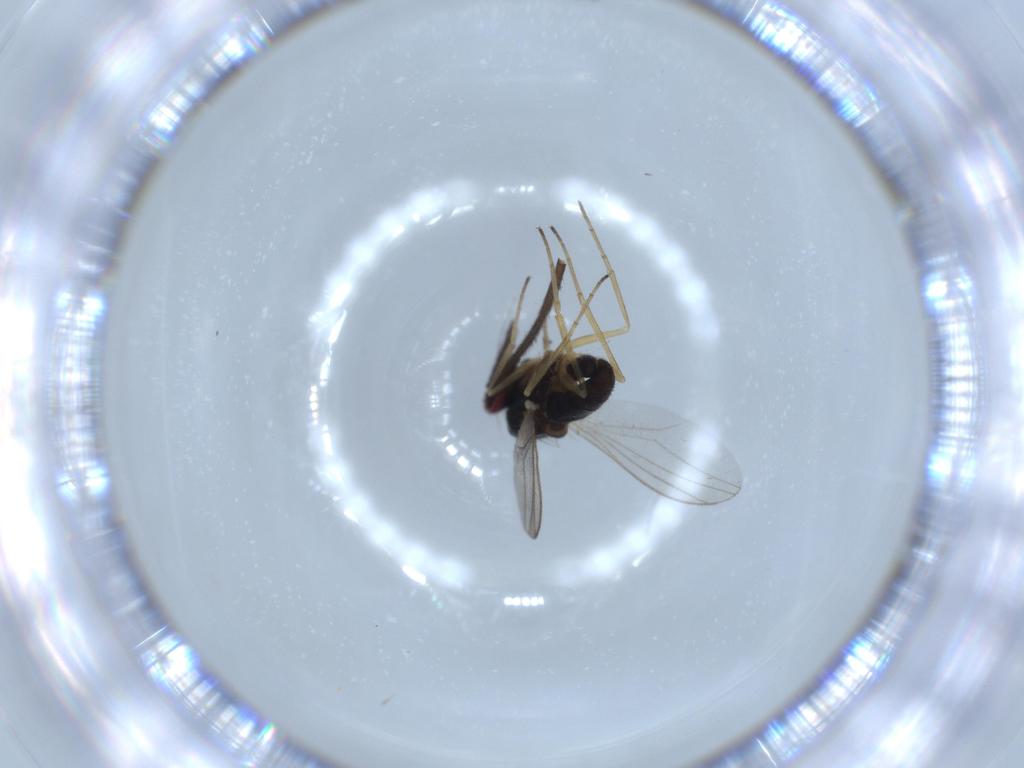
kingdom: Animalia
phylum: Arthropoda
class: Insecta
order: Diptera
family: Sciaridae
